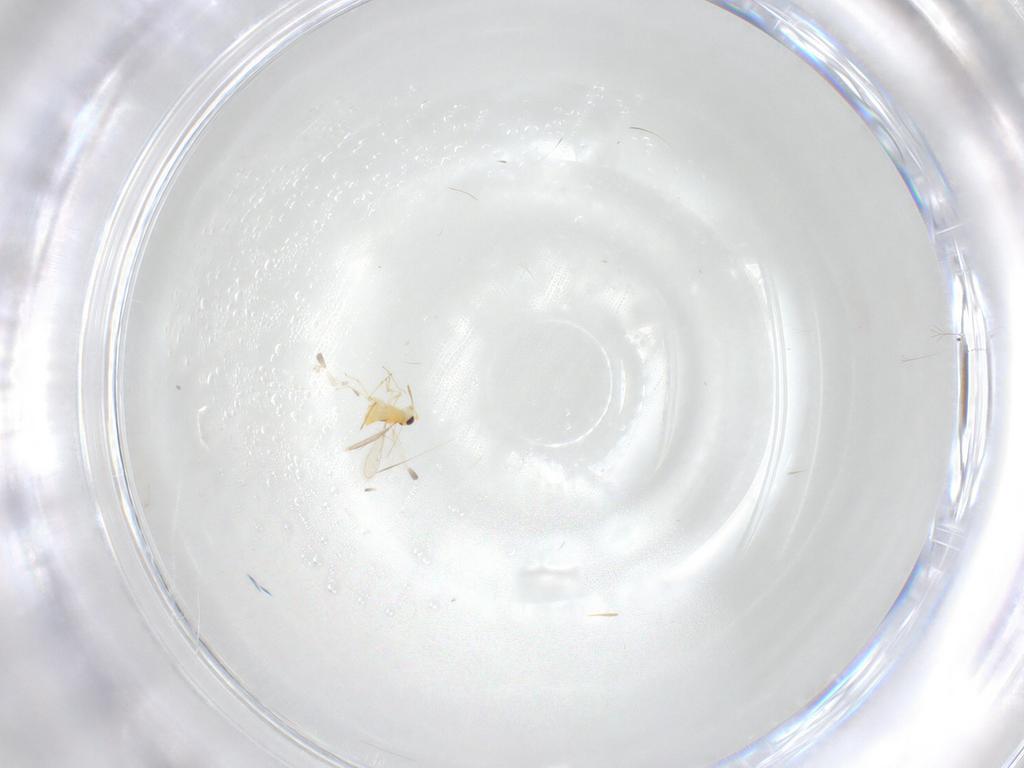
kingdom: Animalia
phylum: Arthropoda
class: Insecta
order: Hymenoptera
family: Aphelinidae
